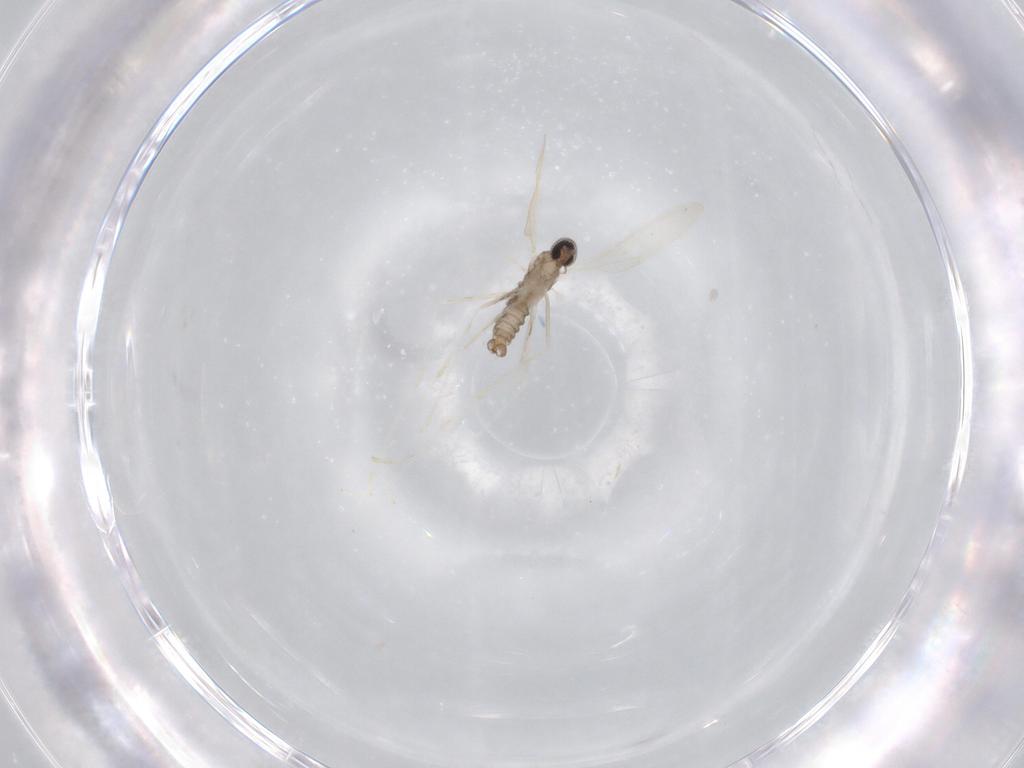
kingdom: Animalia
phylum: Arthropoda
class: Insecta
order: Diptera
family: Cecidomyiidae
